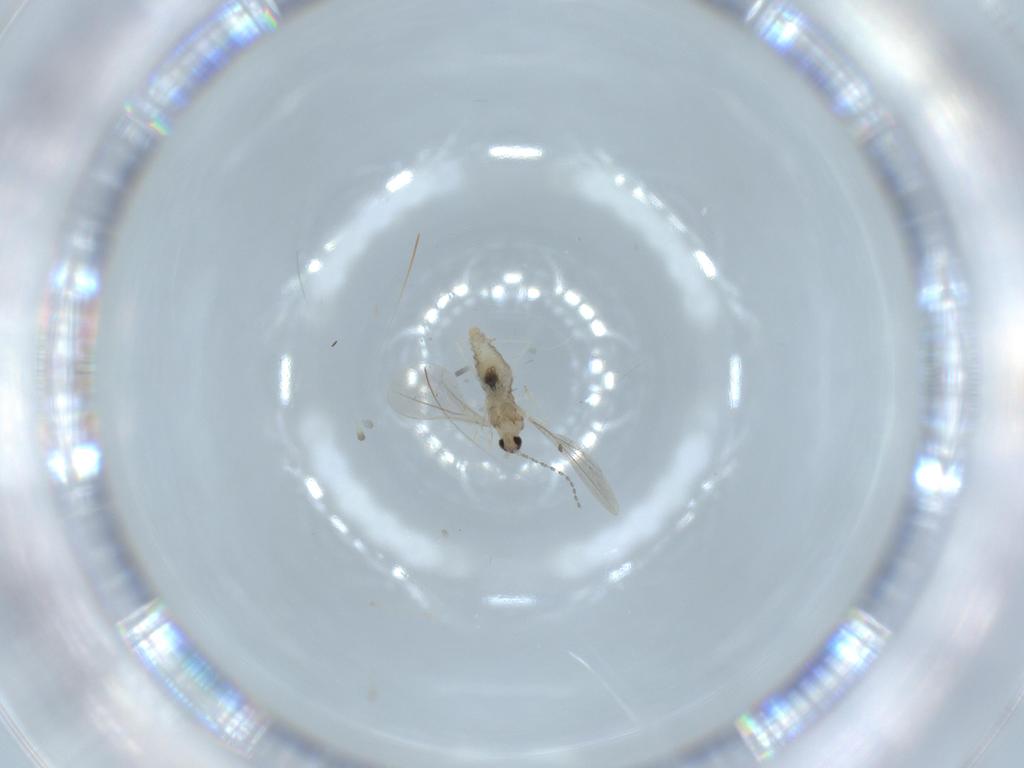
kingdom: Animalia
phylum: Arthropoda
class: Insecta
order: Diptera
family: Cecidomyiidae
